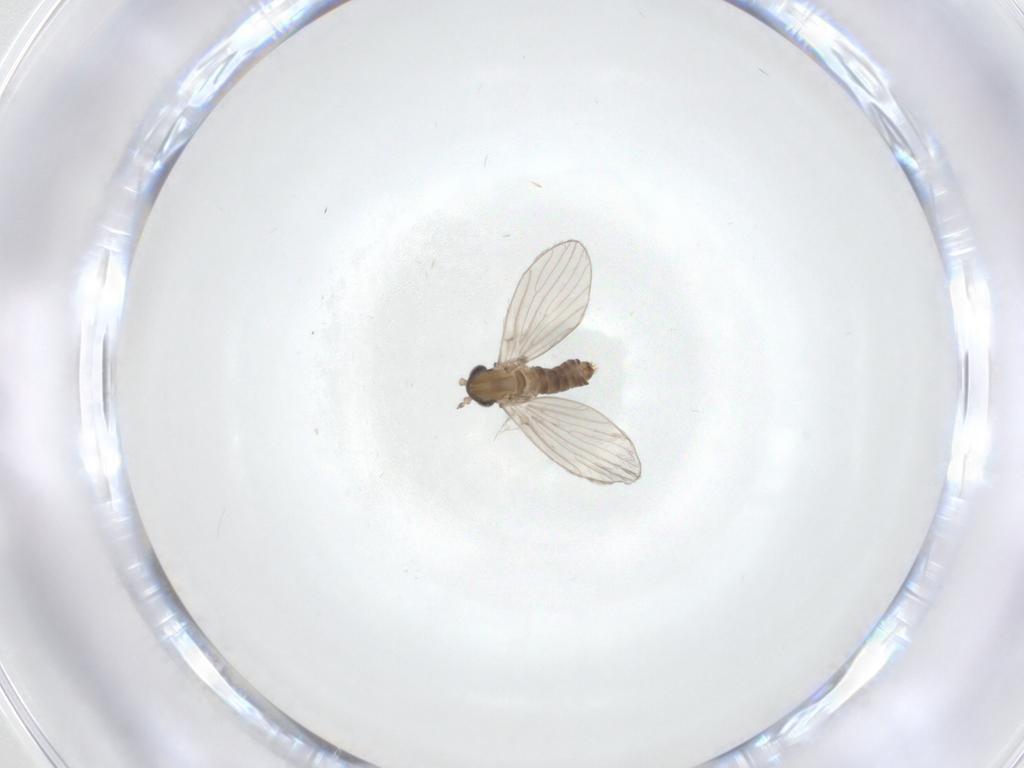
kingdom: Animalia
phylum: Arthropoda
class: Insecta
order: Diptera
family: Psychodidae
